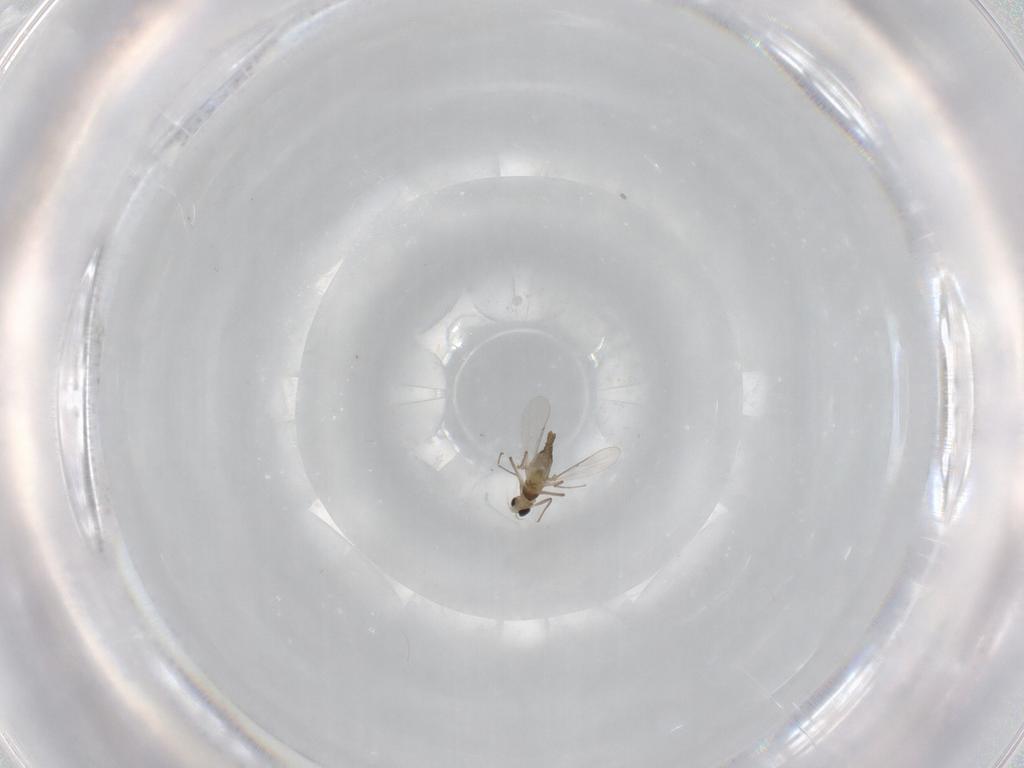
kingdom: Animalia
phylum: Arthropoda
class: Insecta
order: Diptera
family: Chironomidae
